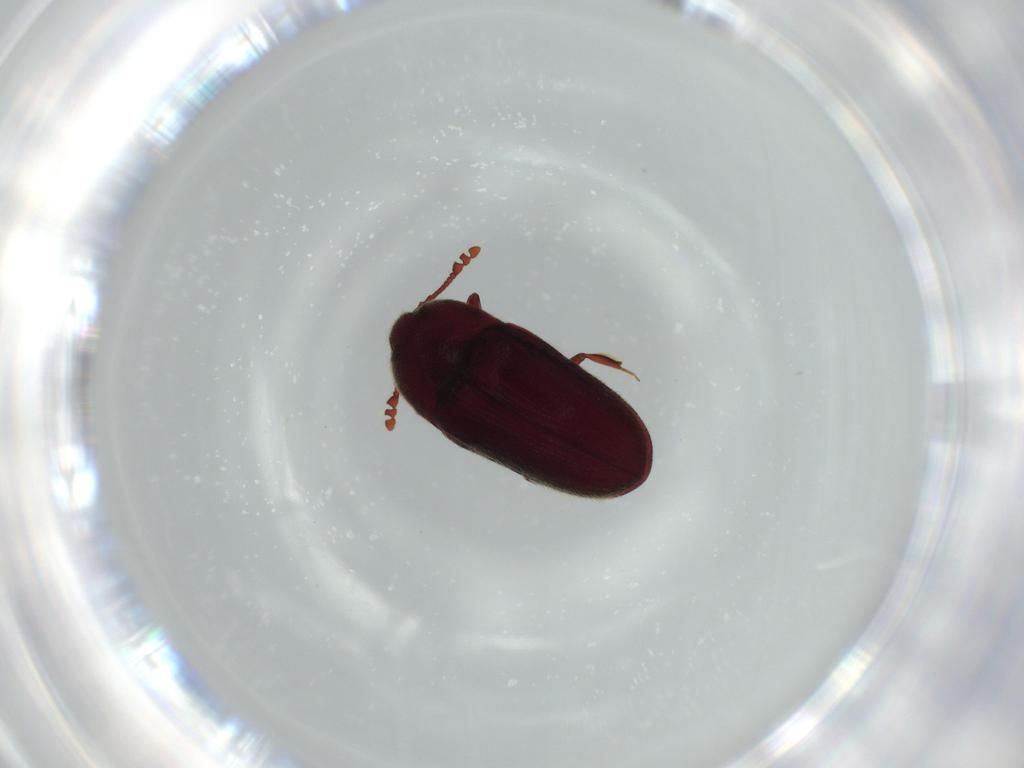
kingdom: Animalia
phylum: Arthropoda
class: Insecta
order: Coleoptera
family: Throscidae
